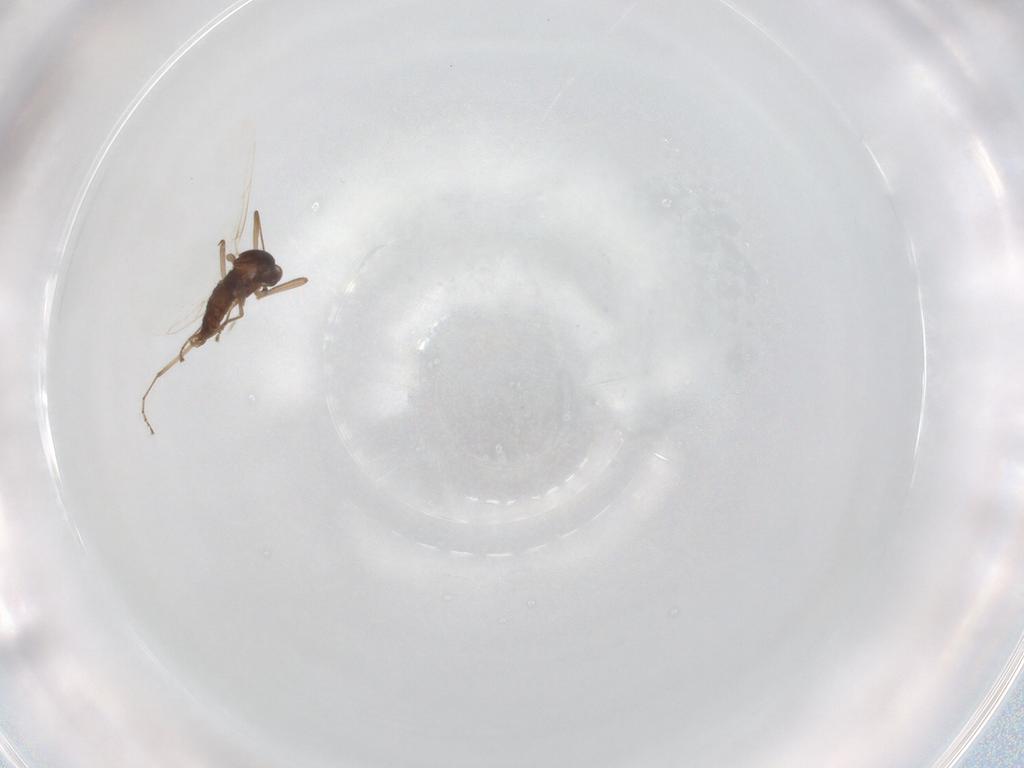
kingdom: Animalia
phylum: Arthropoda
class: Insecta
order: Diptera
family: Cecidomyiidae
